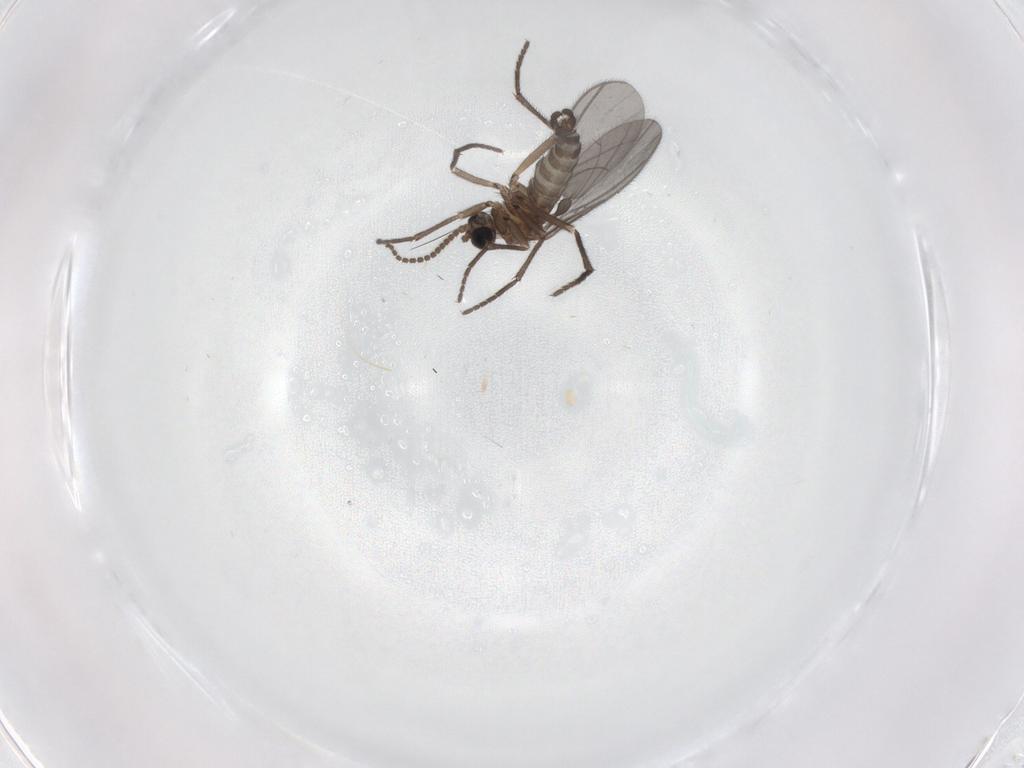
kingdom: Animalia
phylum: Arthropoda
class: Insecta
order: Diptera
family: Sciaridae
